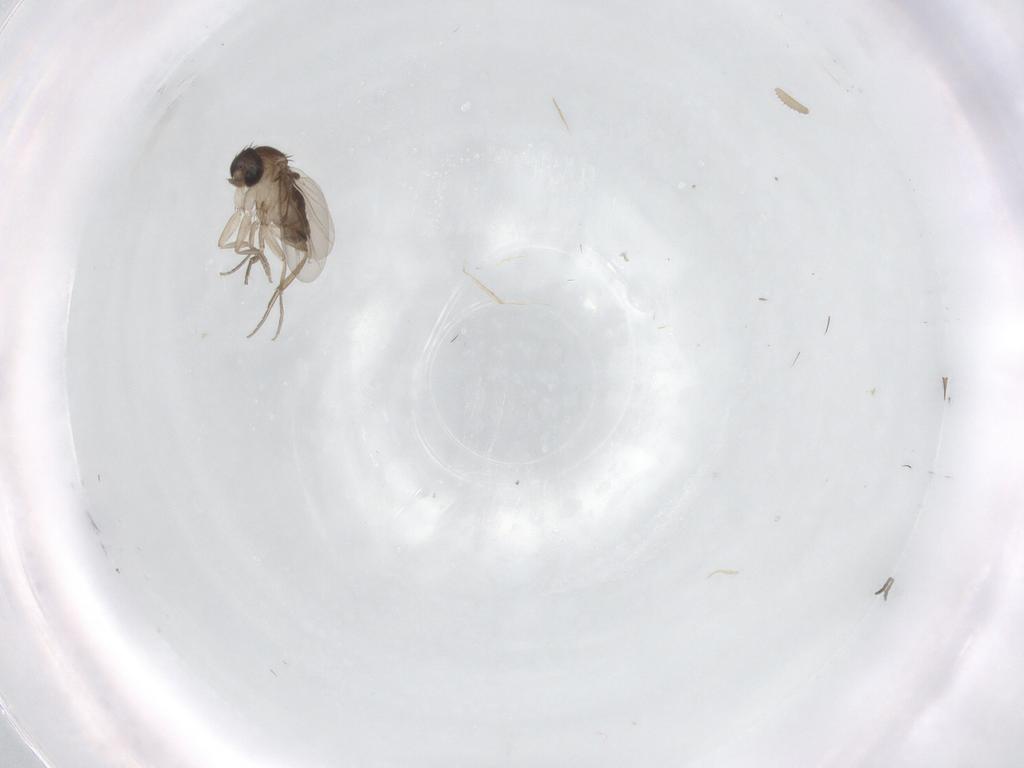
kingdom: Animalia
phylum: Arthropoda
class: Insecta
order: Diptera
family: Phoridae
